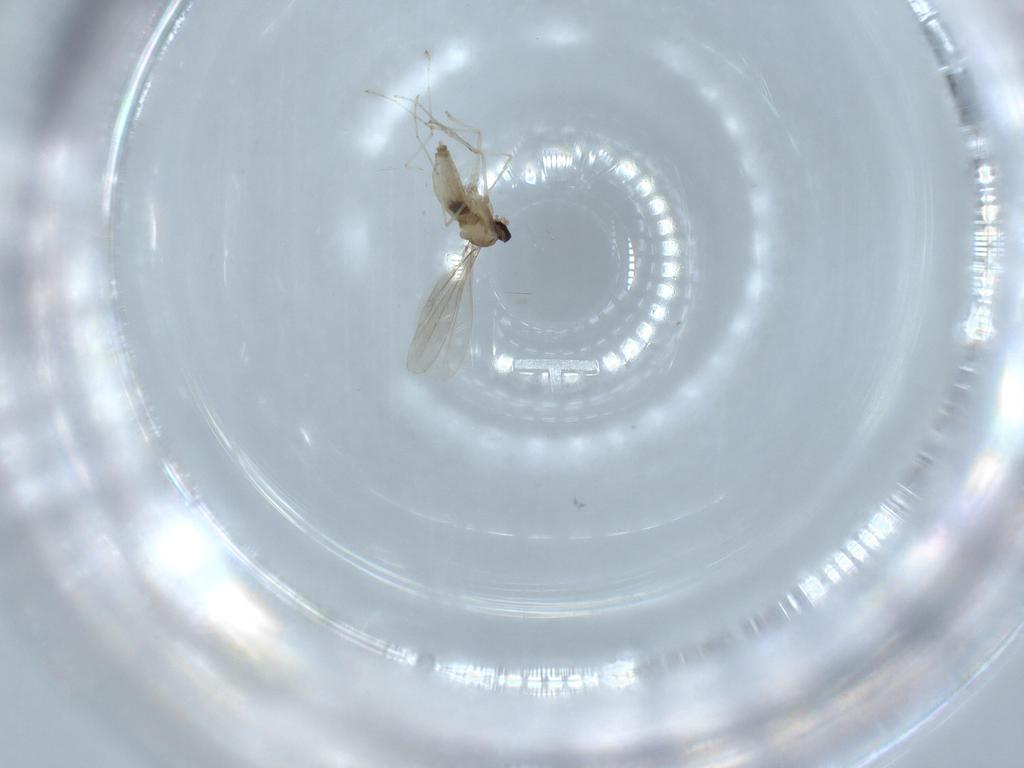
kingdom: Animalia
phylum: Arthropoda
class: Insecta
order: Diptera
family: Cecidomyiidae
